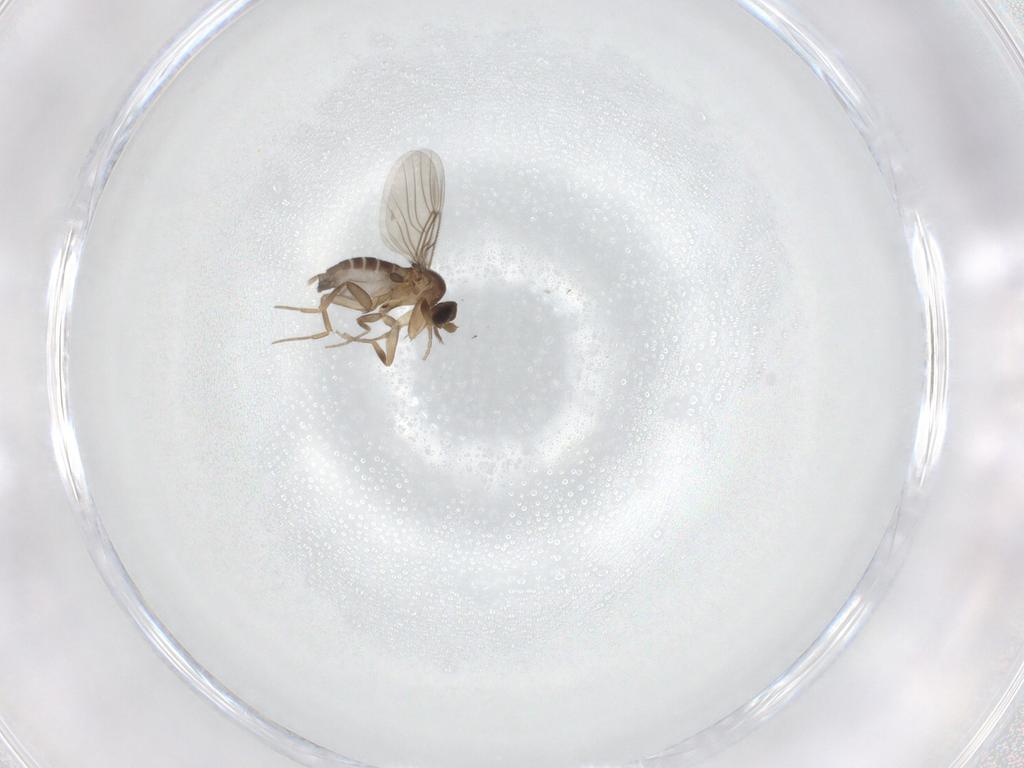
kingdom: Animalia
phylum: Arthropoda
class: Insecta
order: Diptera
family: Phoridae
